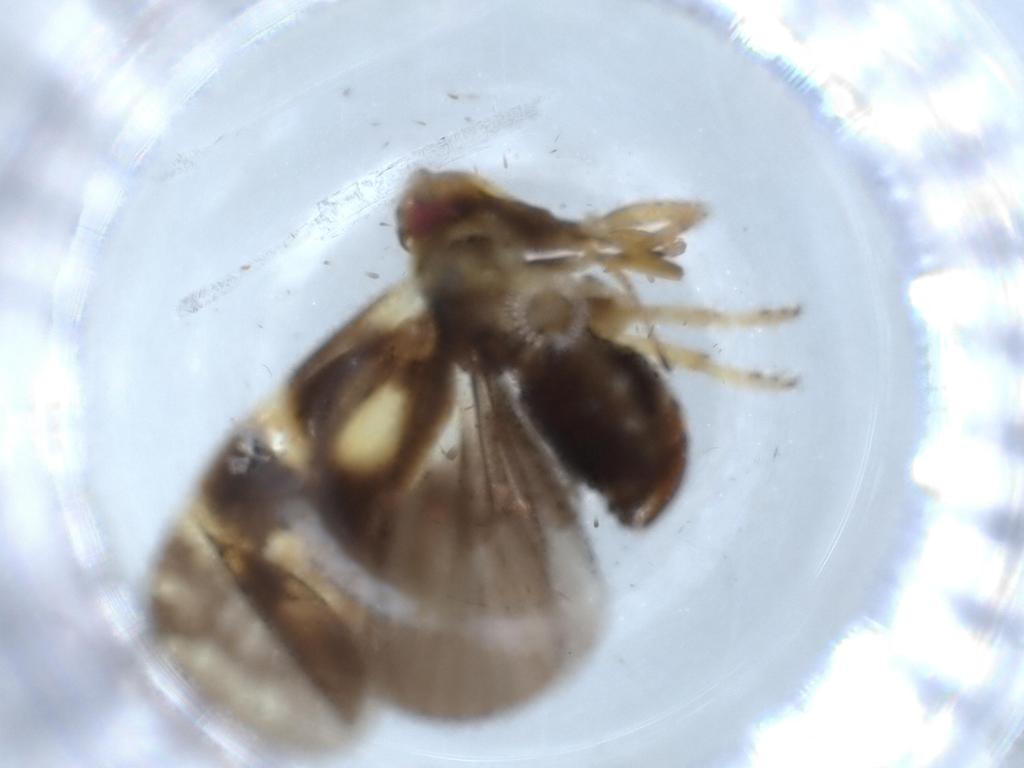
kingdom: Animalia
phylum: Arthropoda
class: Insecta
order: Hemiptera
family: Cixiidae
